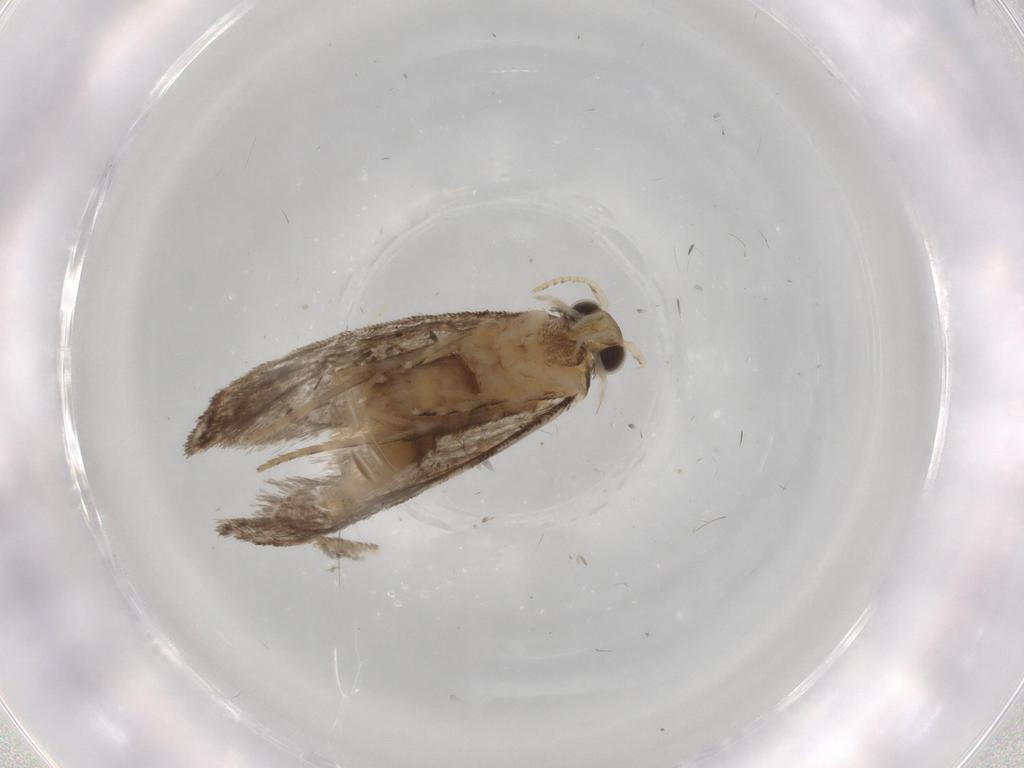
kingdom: Animalia
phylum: Arthropoda
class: Insecta
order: Lepidoptera
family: Tineidae
